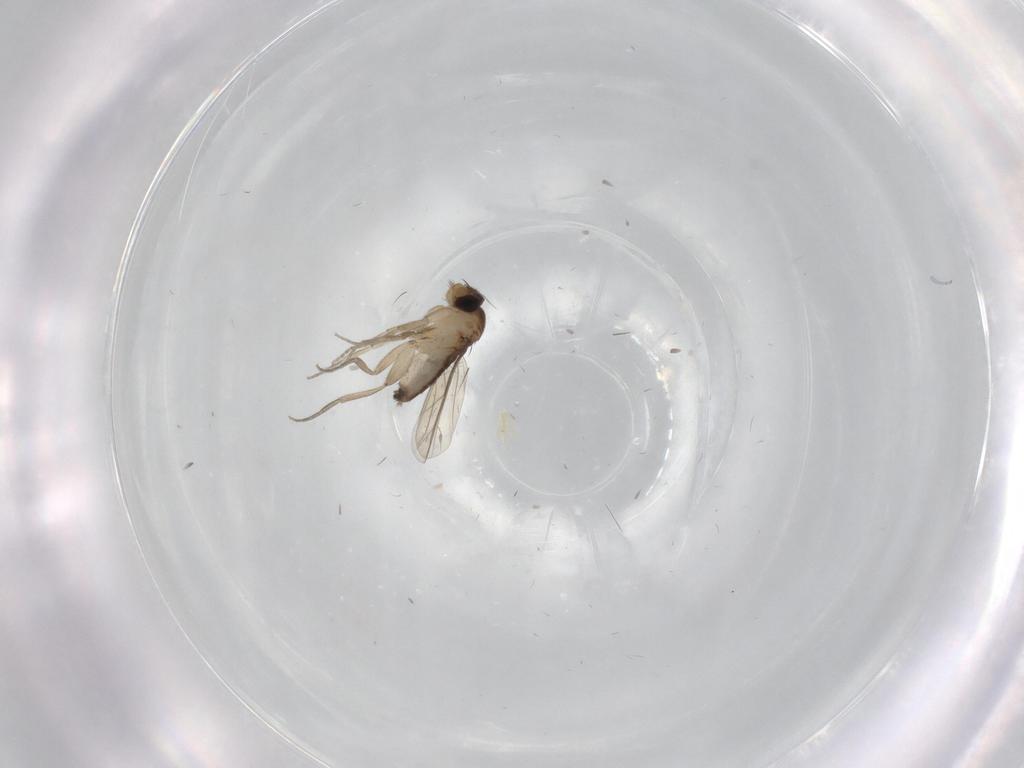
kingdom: Animalia
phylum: Arthropoda
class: Insecta
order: Diptera
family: Phoridae
